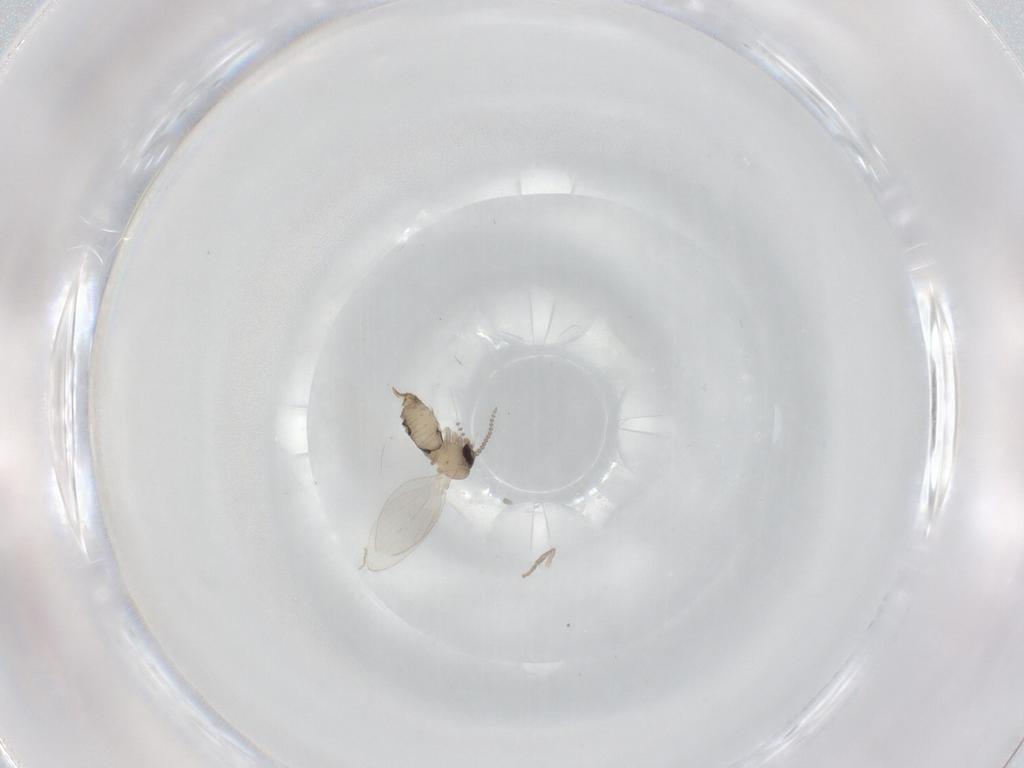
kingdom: Animalia
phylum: Arthropoda
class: Insecta
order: Diptera
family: Psychodidae
